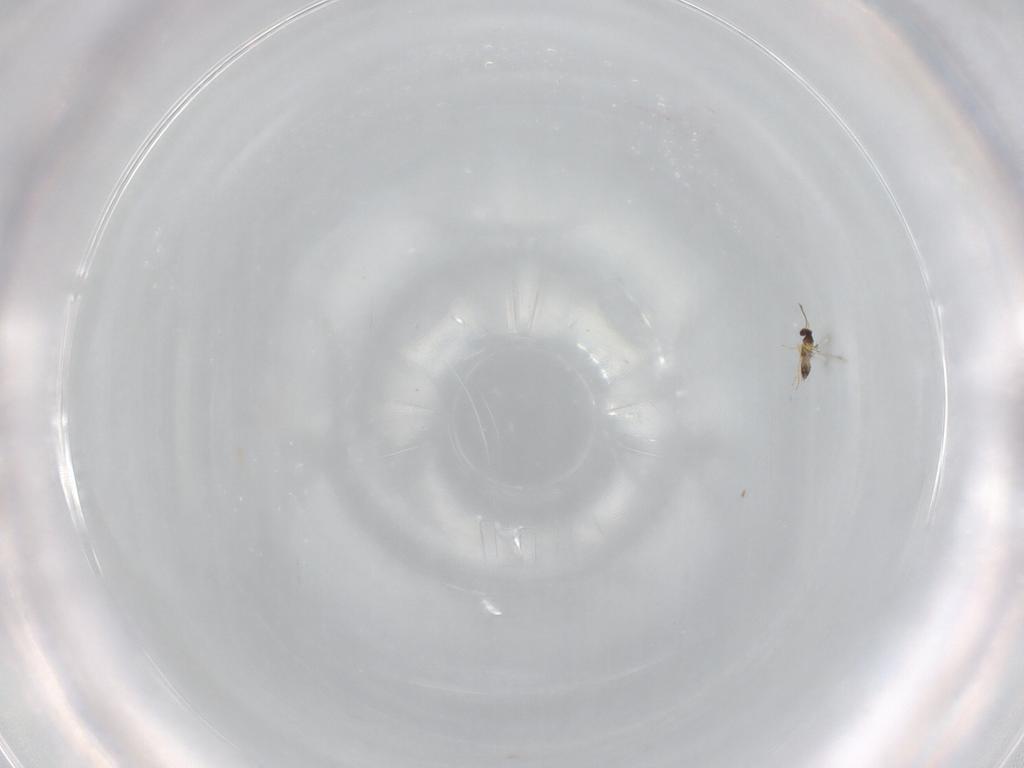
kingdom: Animalia
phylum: Arthropoda
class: Insecta
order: Hymenoptera
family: Mymaridae
